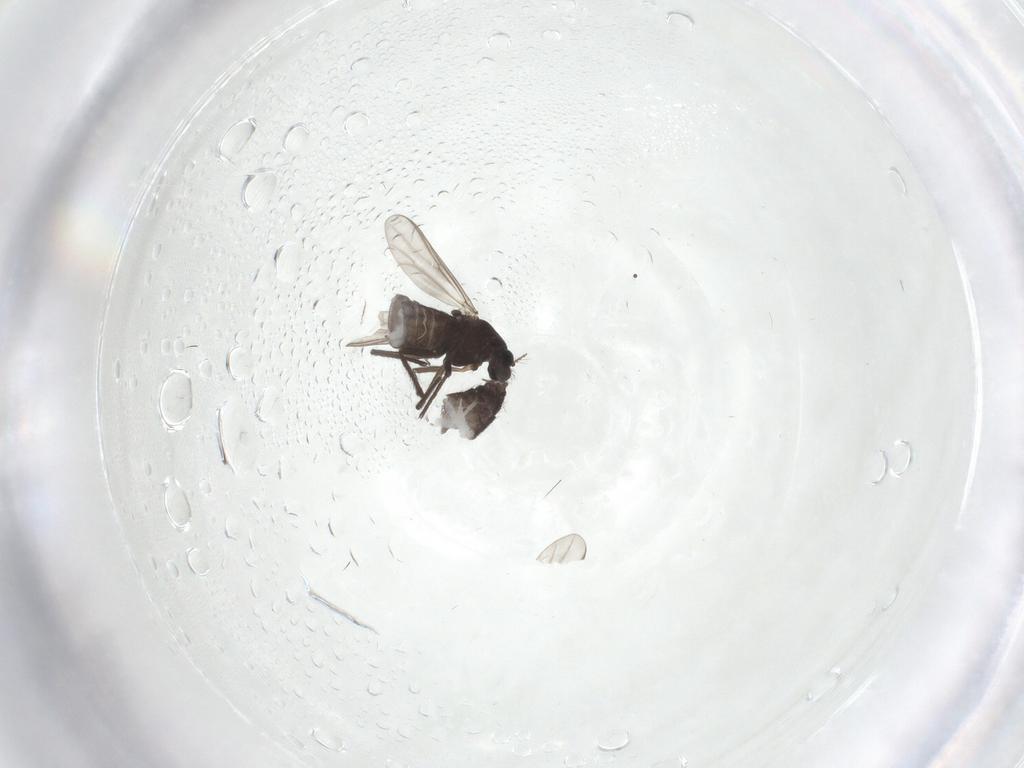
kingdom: Animalia
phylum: Arthropoda
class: Insecta
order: Diptera
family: Chironomidae
